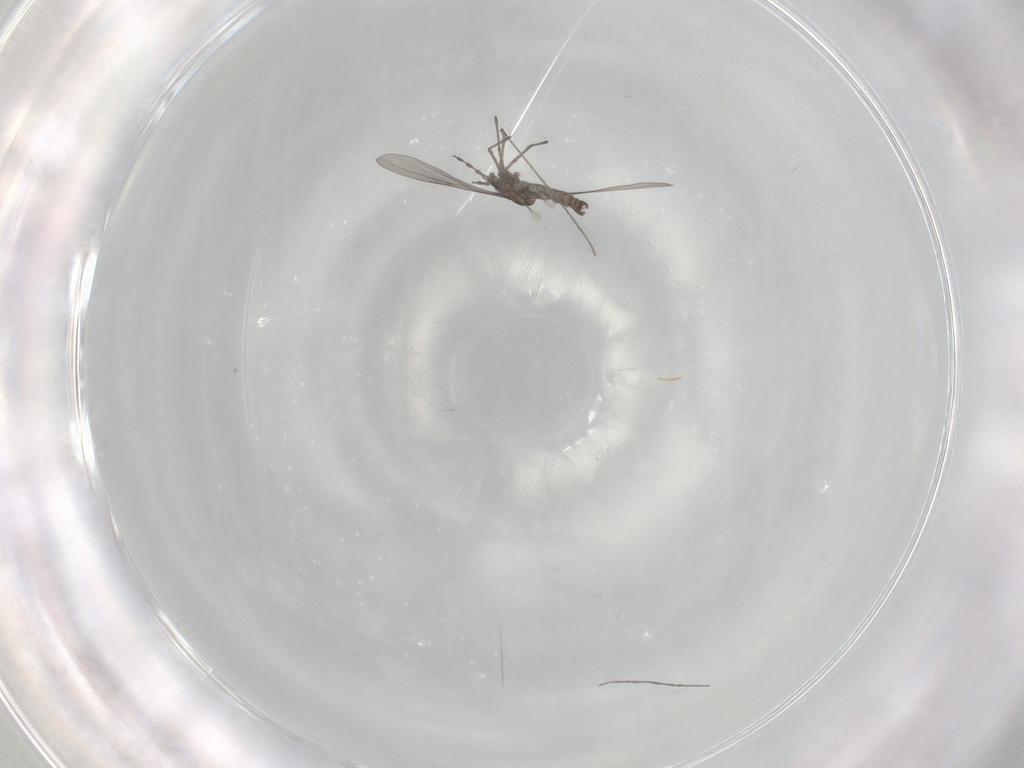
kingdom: Animalia
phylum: Arthropoda
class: Insecta
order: Diptera
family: Cecidomyiidae
